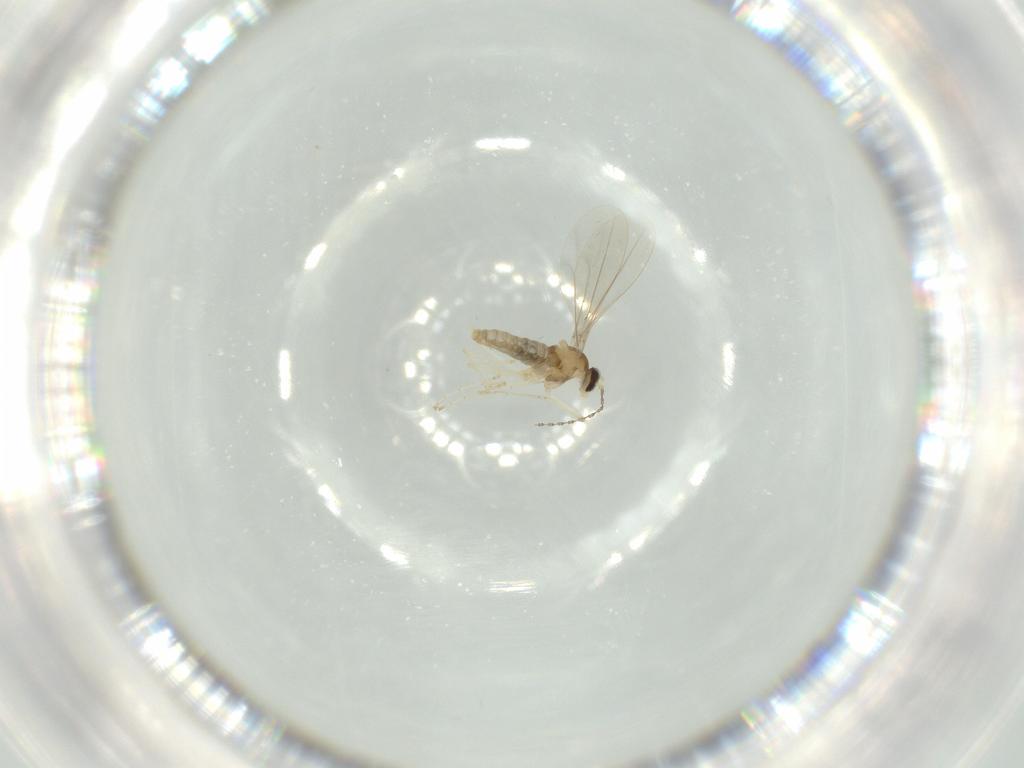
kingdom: Animalia
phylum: Arthropoda
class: Insecta
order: Diptera
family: Cecidomyiidae
